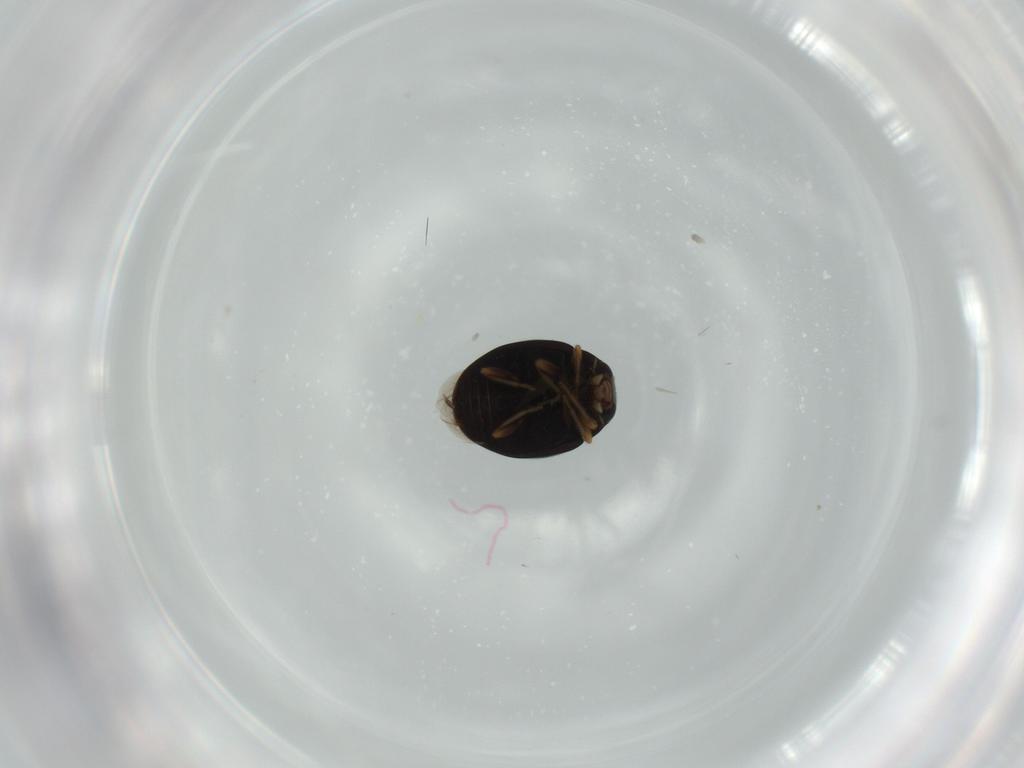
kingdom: Animalia
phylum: Arthropoda
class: Insecta
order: Coleoptera
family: Coccinellidae
